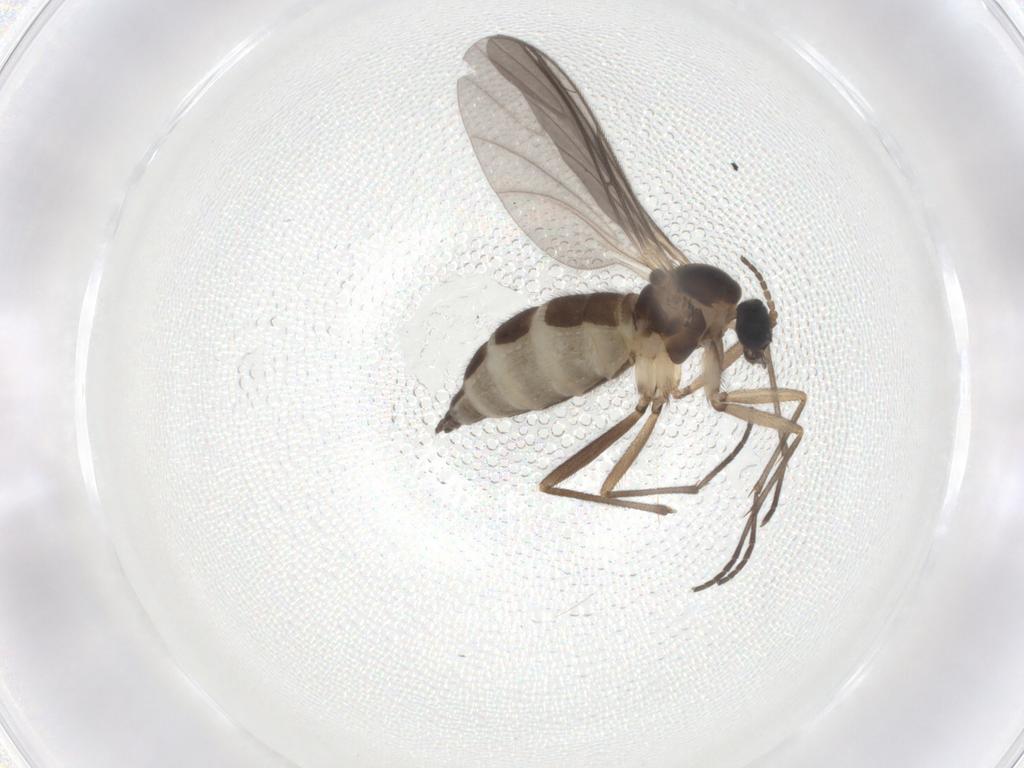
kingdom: Animalia
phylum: Arthropoda
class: Insecta
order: Diptera
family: Sciaridae
